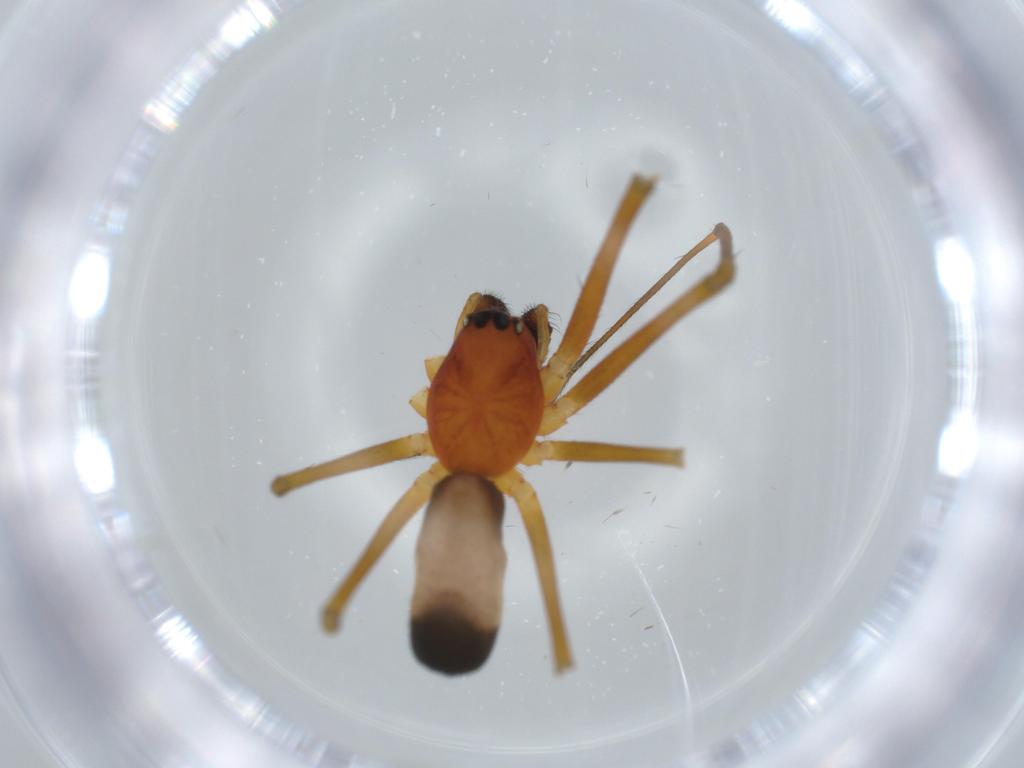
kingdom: Animalia
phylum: Arthropoda
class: Arachnida
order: Araneae
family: Linyphiidae
